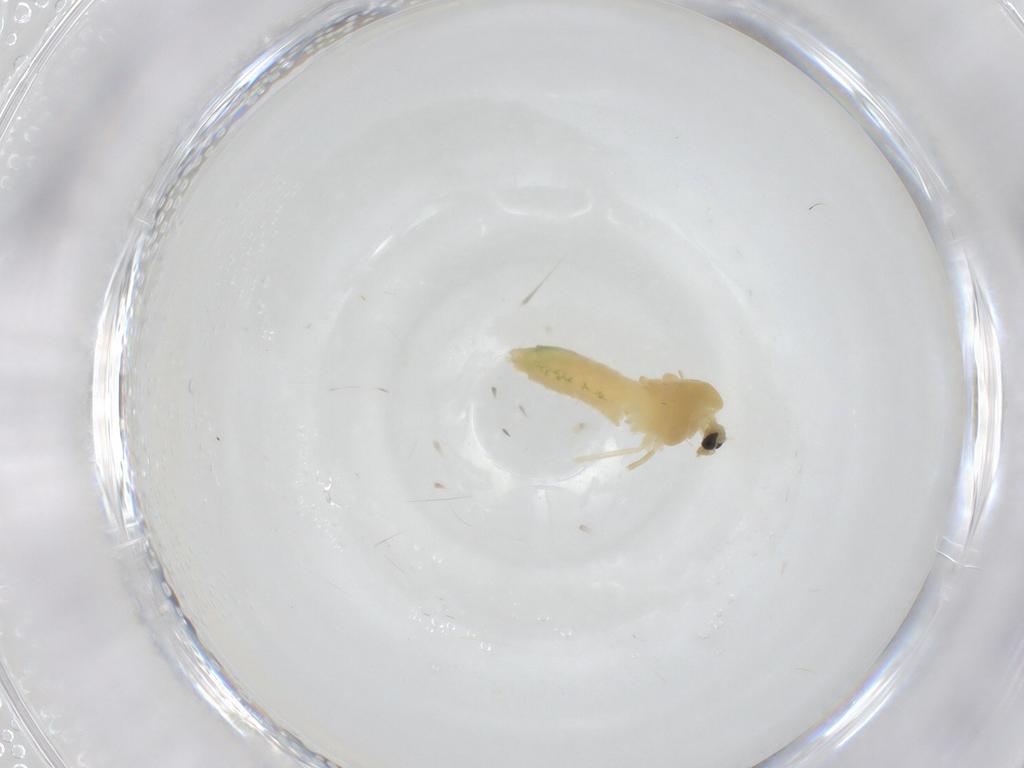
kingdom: Animalia
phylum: Arthropoda
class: Insecta
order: Diptera
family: Chironomidae
